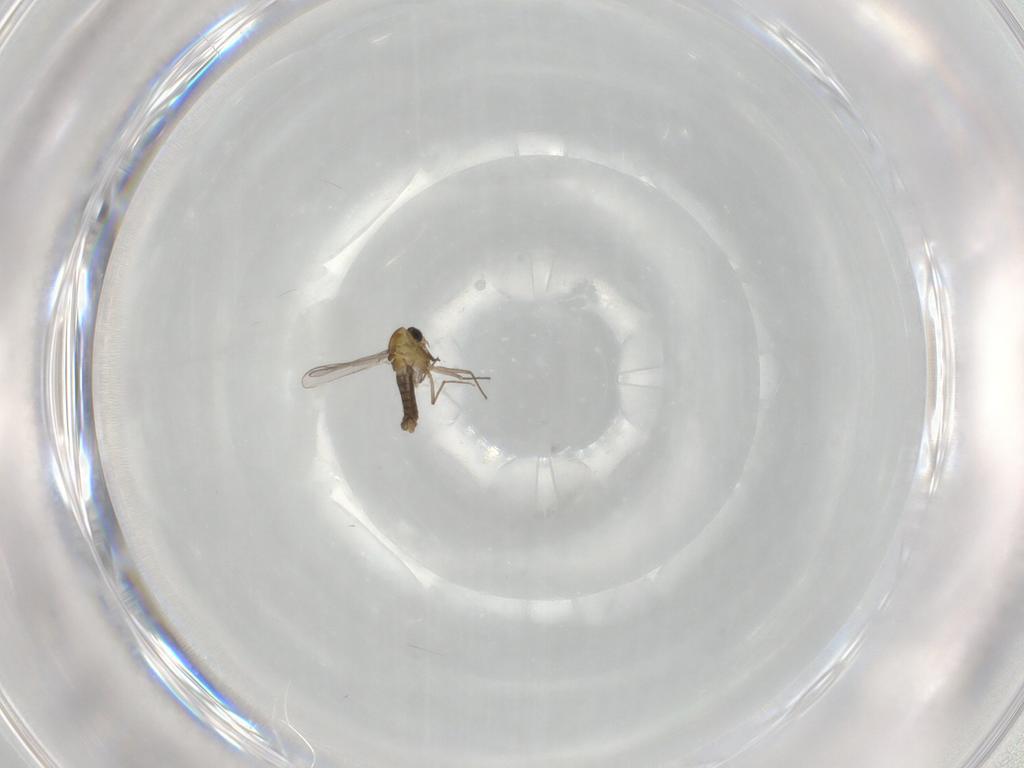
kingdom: Animalia
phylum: Arthropoda
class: Insecta
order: Diptera
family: Chironomidae
